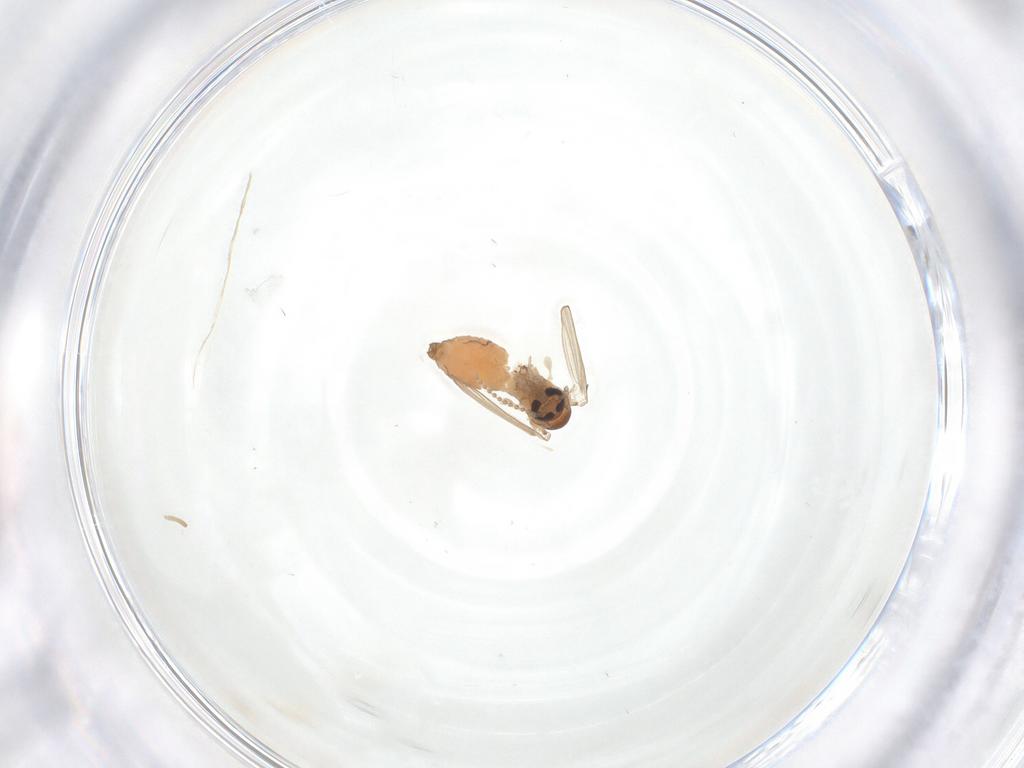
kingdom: Animalia
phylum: Arthropoda
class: Insecta
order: Diptera
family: Psychodidae
